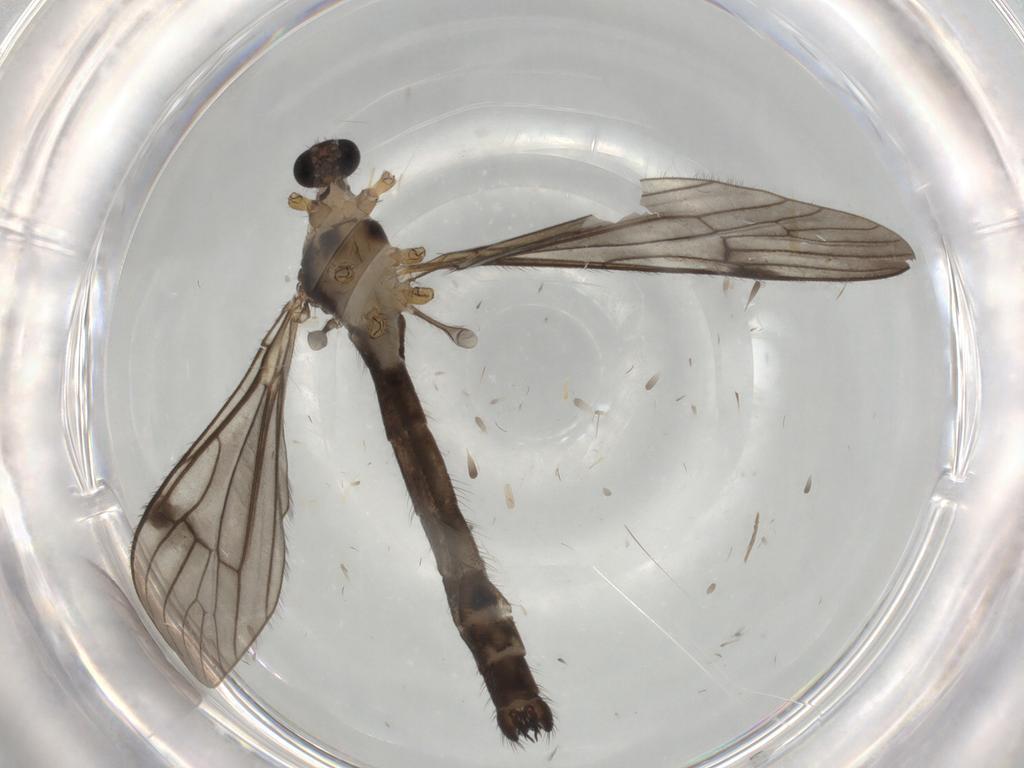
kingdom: Animalia
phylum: Arthropoda
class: Insecta
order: Diptera
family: Limoniidae
